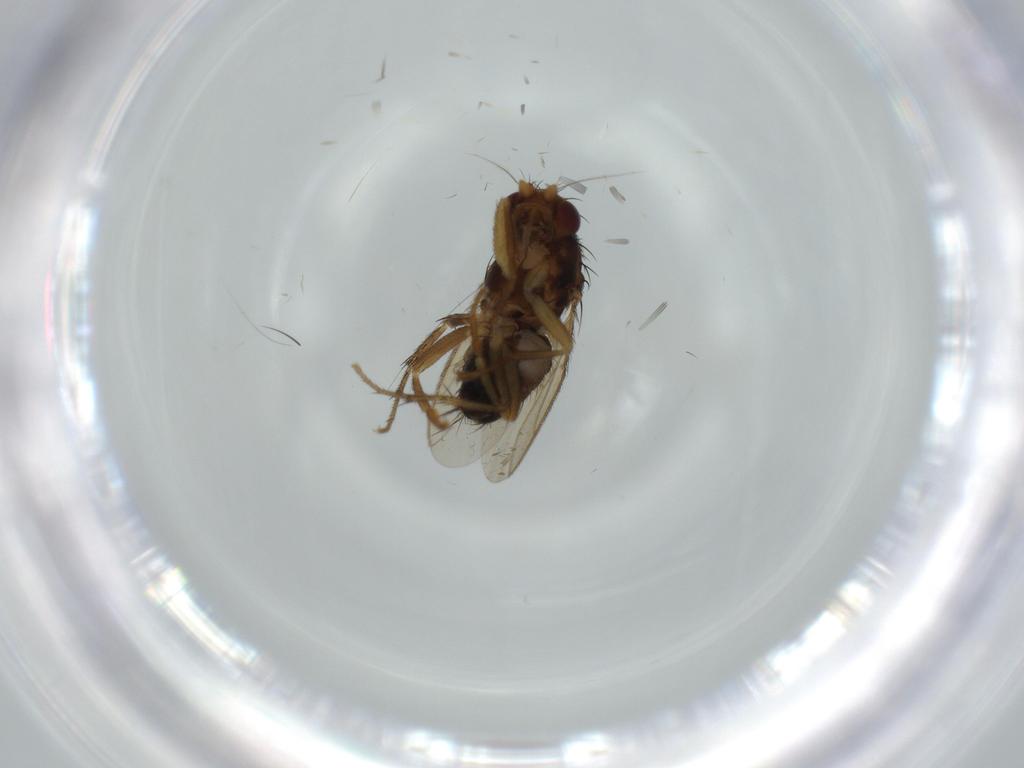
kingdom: Animalia
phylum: Arthropoda
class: Insecta
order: Diptera
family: Sphaeroceridae
